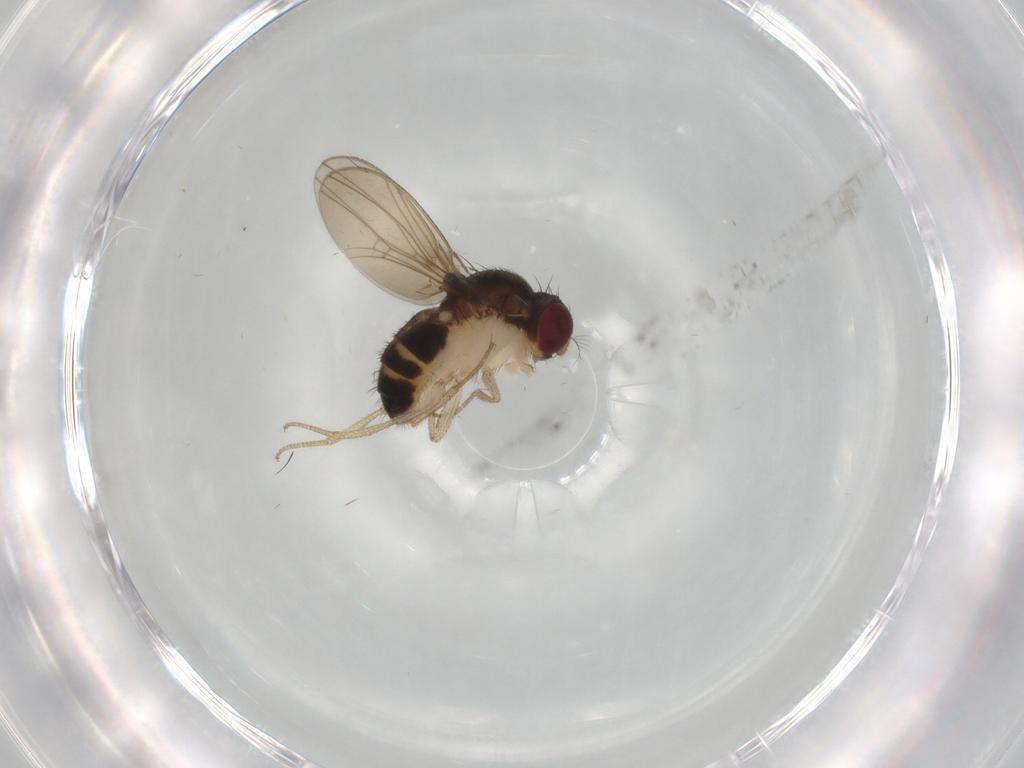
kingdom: Animalia
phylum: Arthropoda
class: Insecta
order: Diptera
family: Drosophilidae
